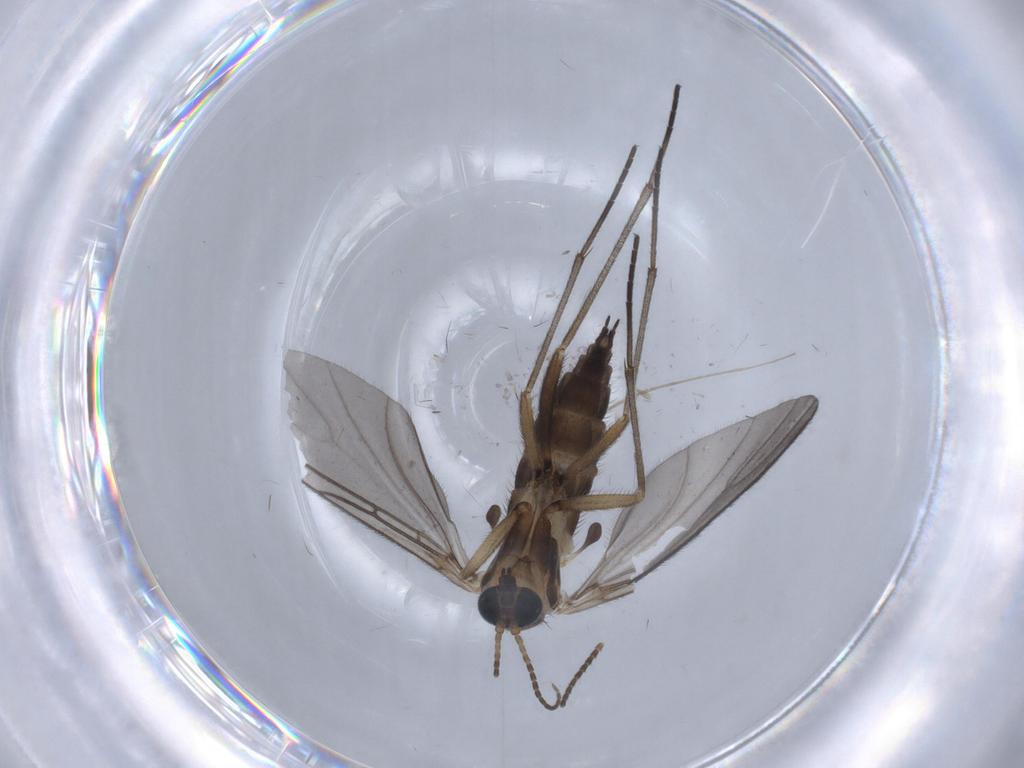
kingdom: Animalia
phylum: Arthropoda
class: Insecta
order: Diptera
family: Sciaridae
